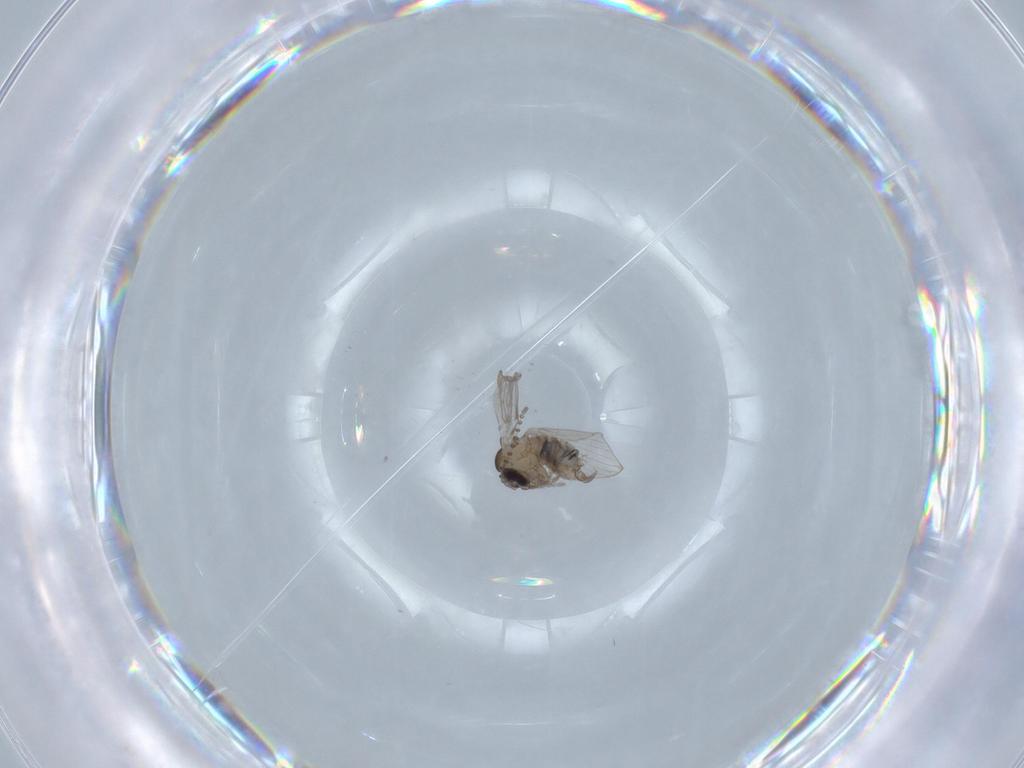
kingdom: Animalia
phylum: Arthropoda
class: Insecta
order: Diptera
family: Psychodidae
